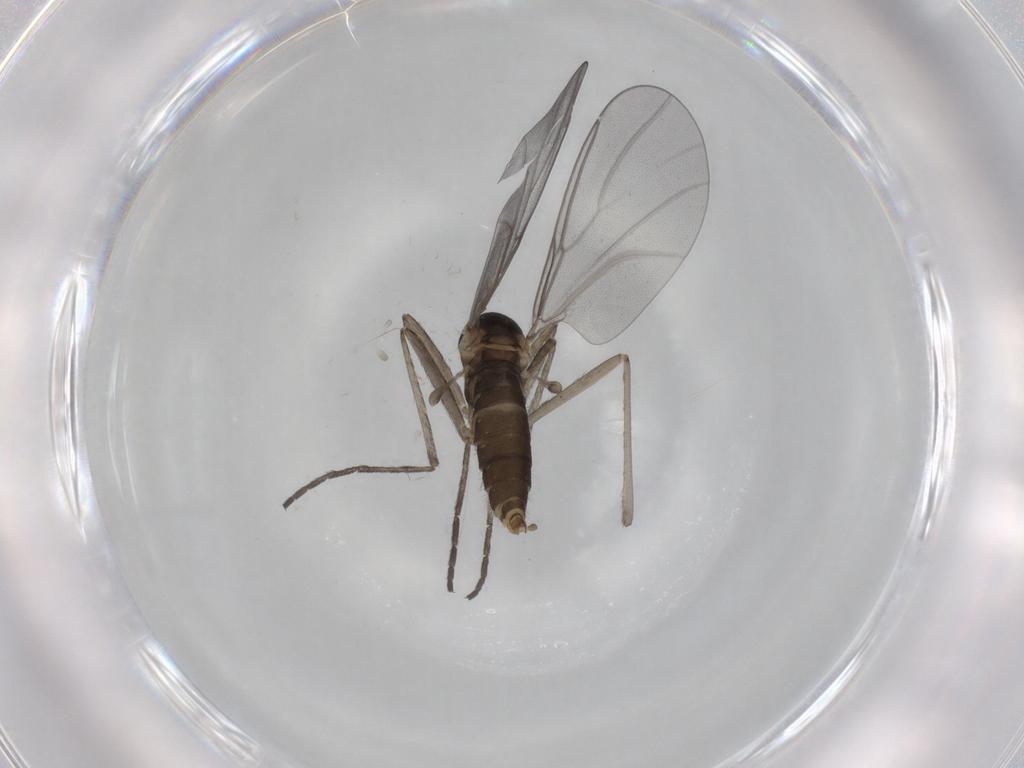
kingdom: Animalia
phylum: Arthropoda
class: Insecta
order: Diptera
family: Cecidomyiidae
